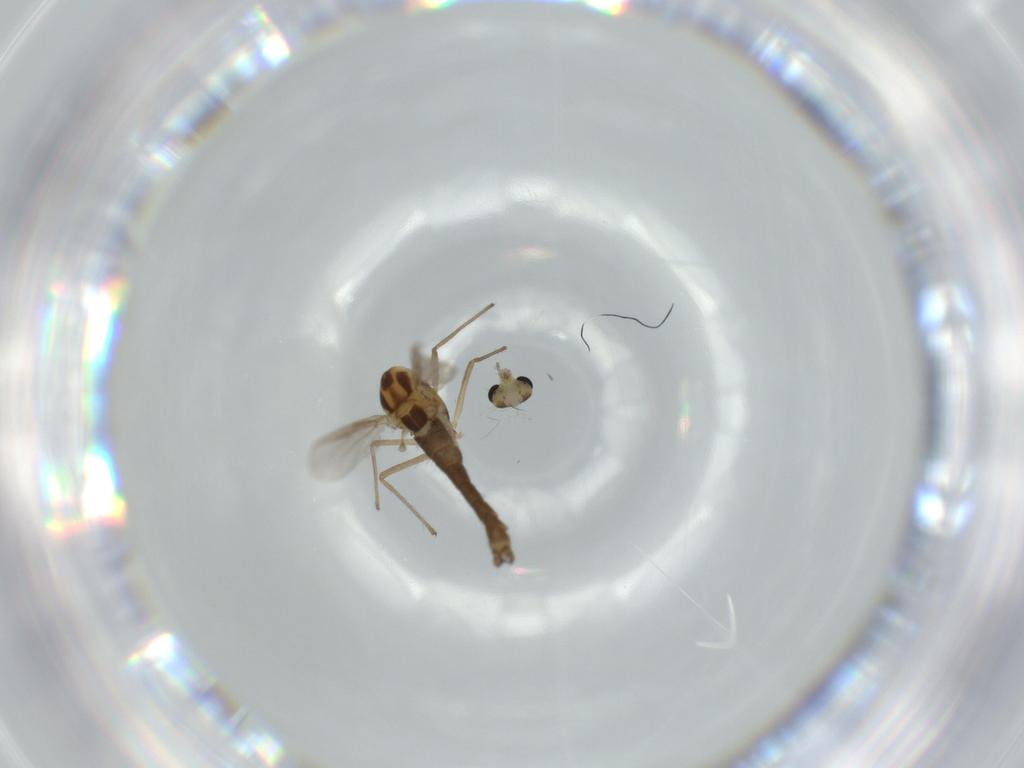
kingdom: Animalia
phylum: Arthropoda
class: Insecta
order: Diptera
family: Chironomidae
